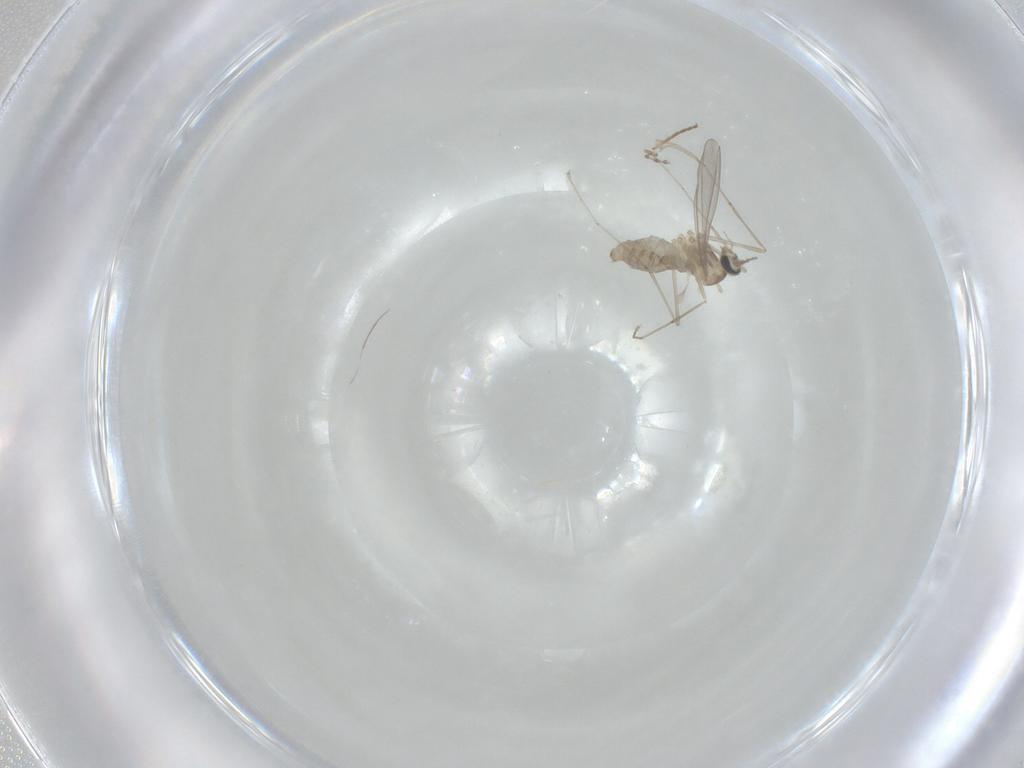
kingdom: Animalia
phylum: Arthropoda
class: Insecta
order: Diptera
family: Cecidomyiidae
